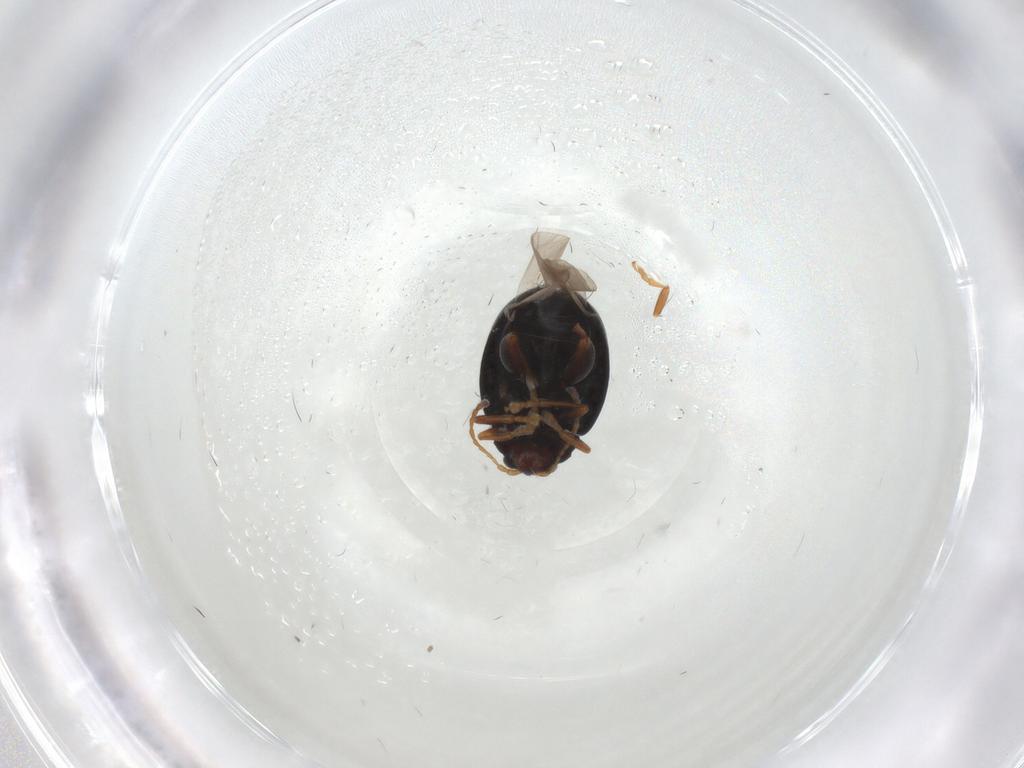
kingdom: Animalia
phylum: Arthropoda
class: Insecta
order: Coleoptera
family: Chrysomelidae
